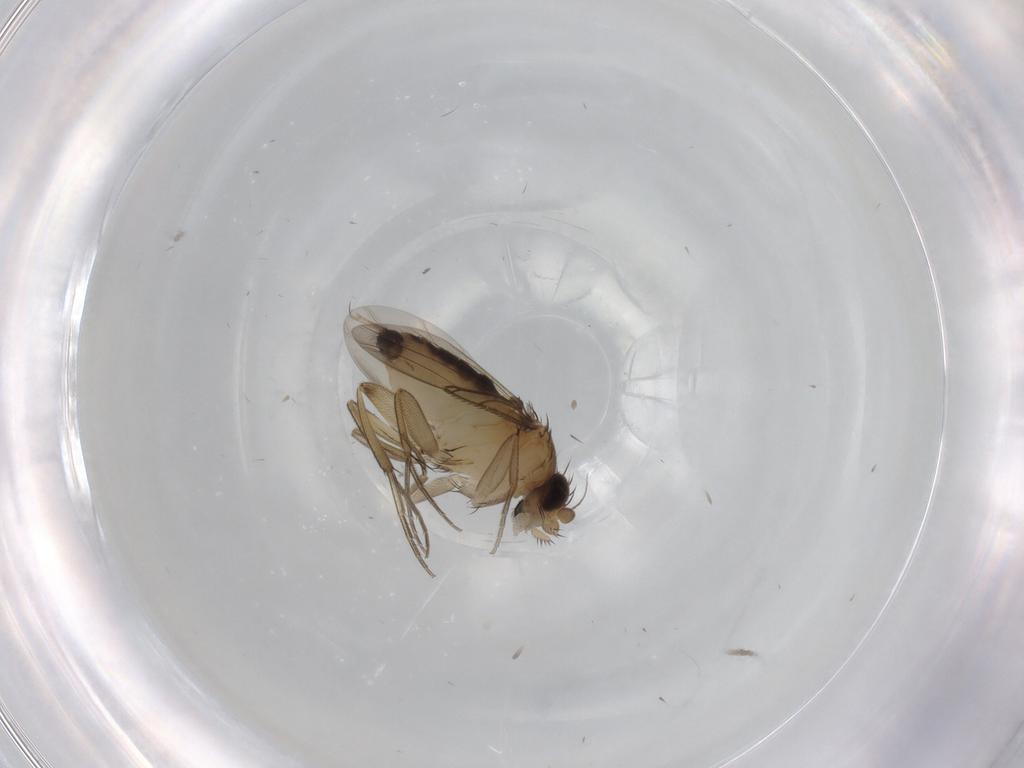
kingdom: Animalia
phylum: Arthropoda
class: Insecta
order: Diptera
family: Phoridae
